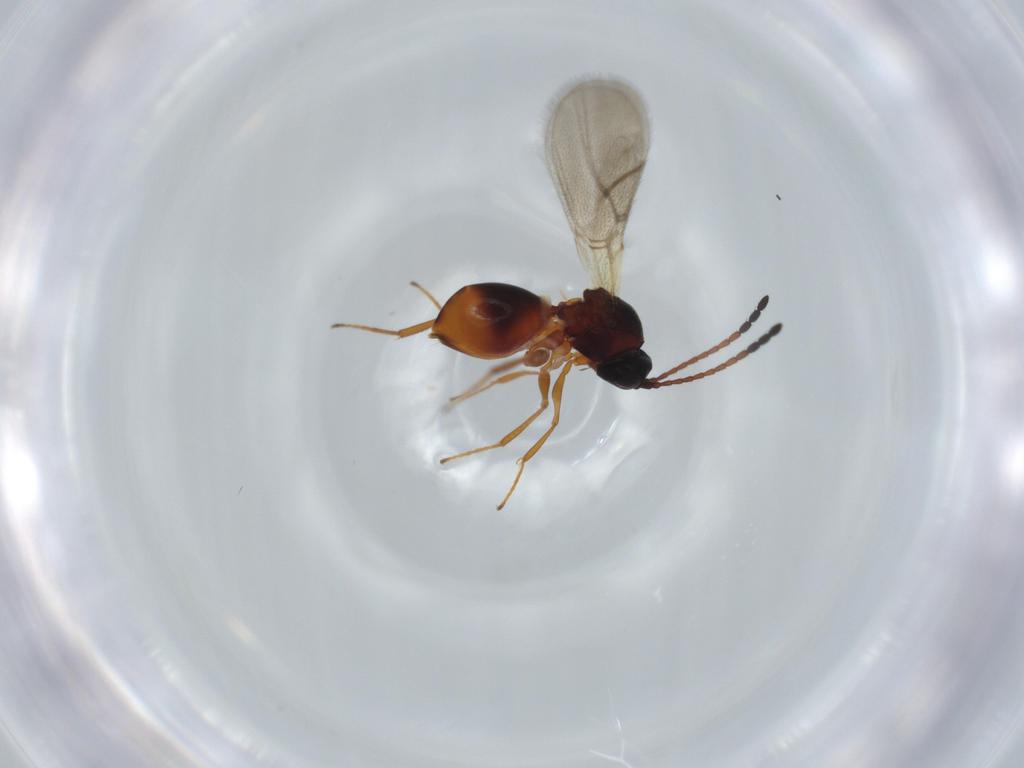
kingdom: Animalia
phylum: Arthropoda
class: Insecta
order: Hymenoptera
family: Figitidae
